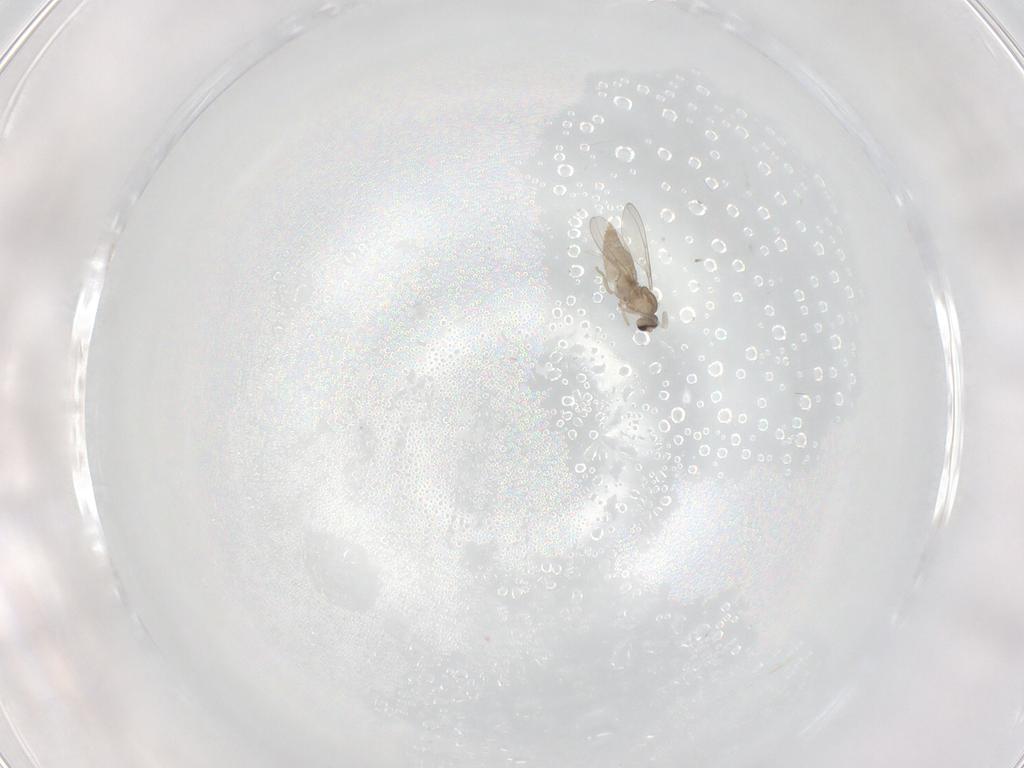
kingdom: Animalia
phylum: Arthropoda
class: Insecta
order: Diptera
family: Cecidomyiidae
